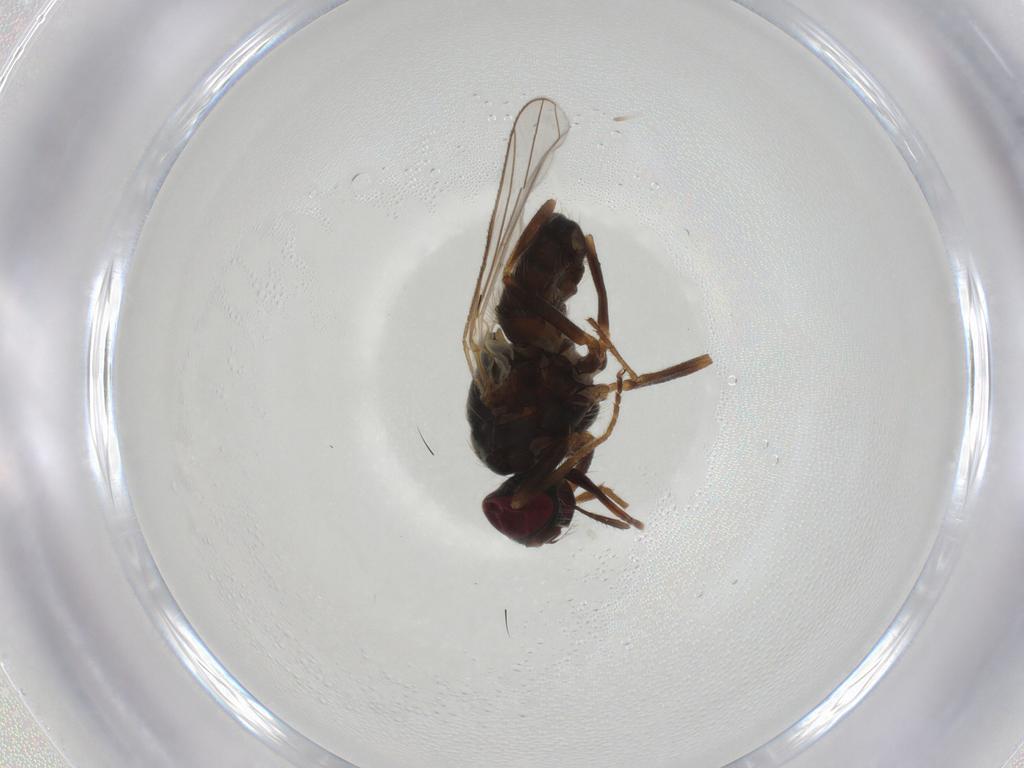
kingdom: Animalia
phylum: Arthropoda
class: Insecta
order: Diptera
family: Muscidae
